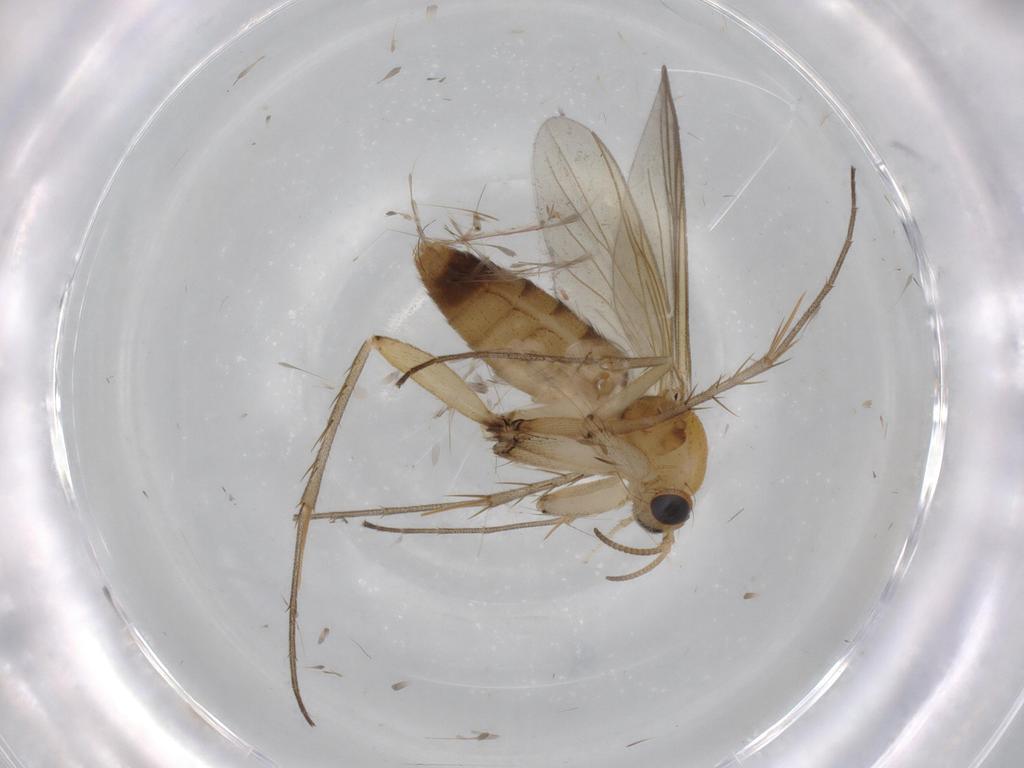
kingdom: Animalia
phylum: Arthropoda
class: Insecta
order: Diptera
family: Mycetophilidae
